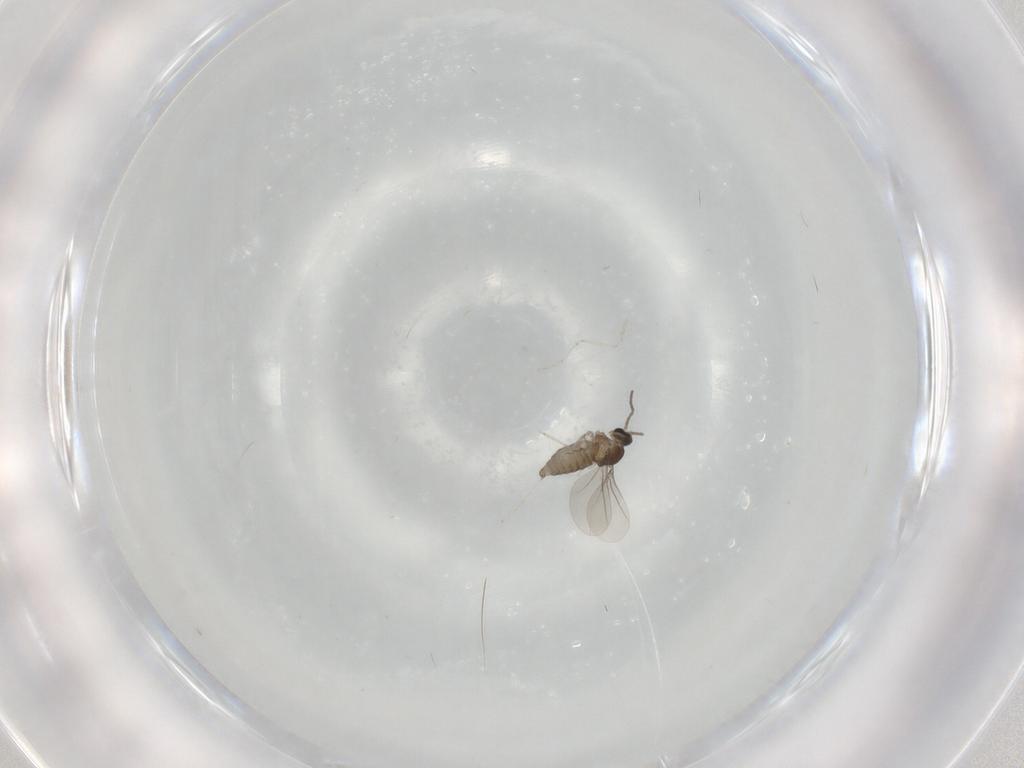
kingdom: Animalia
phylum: Arthropoda
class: Insecta
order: Diptera
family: Cecidomyiidae
